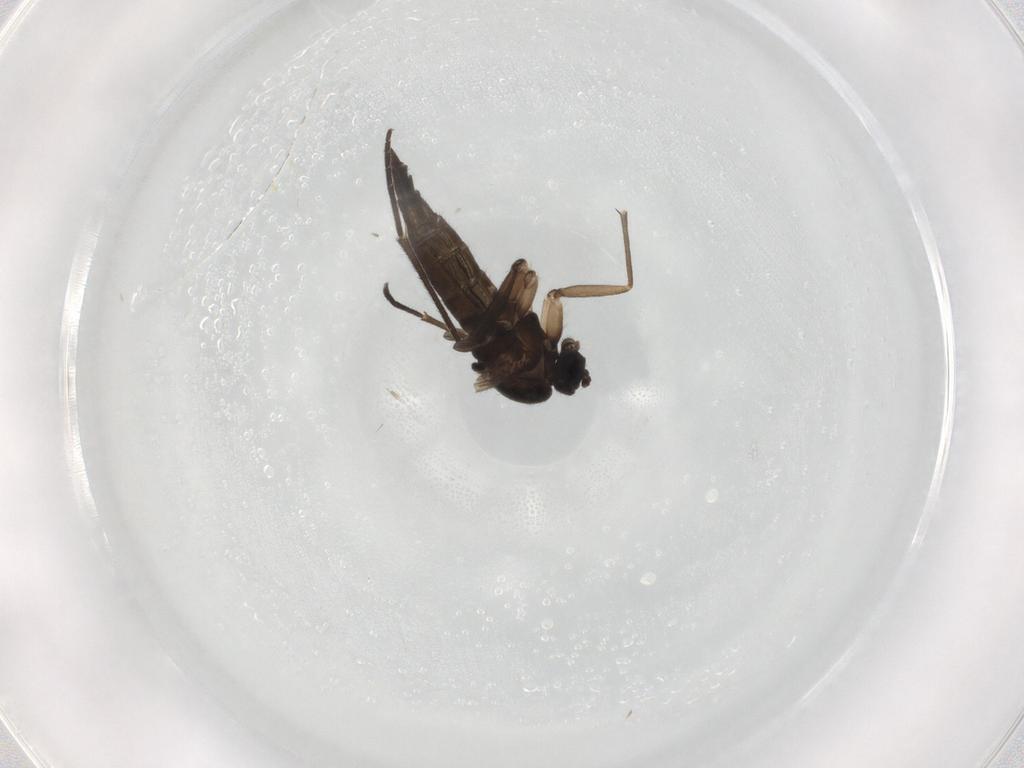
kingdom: Animalia
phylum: Arthropoda
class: Insecta
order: Diptera
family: Sciaridae
